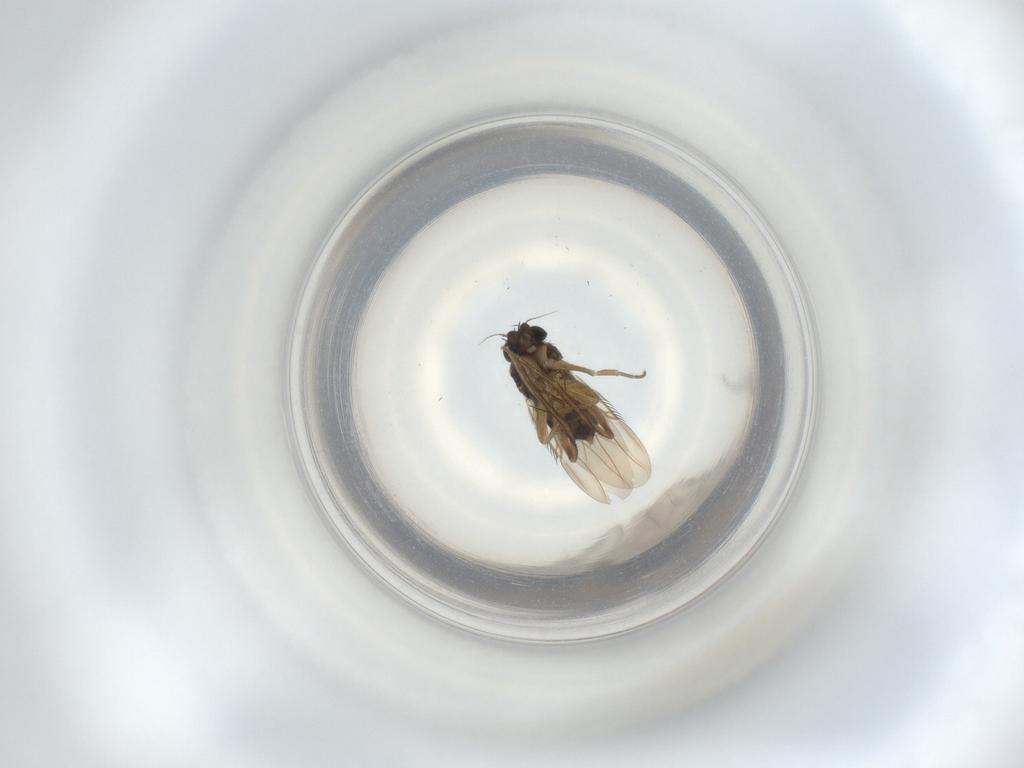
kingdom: Animalia
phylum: Arthropoda
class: Insecta
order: Diptera
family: Phoridae
